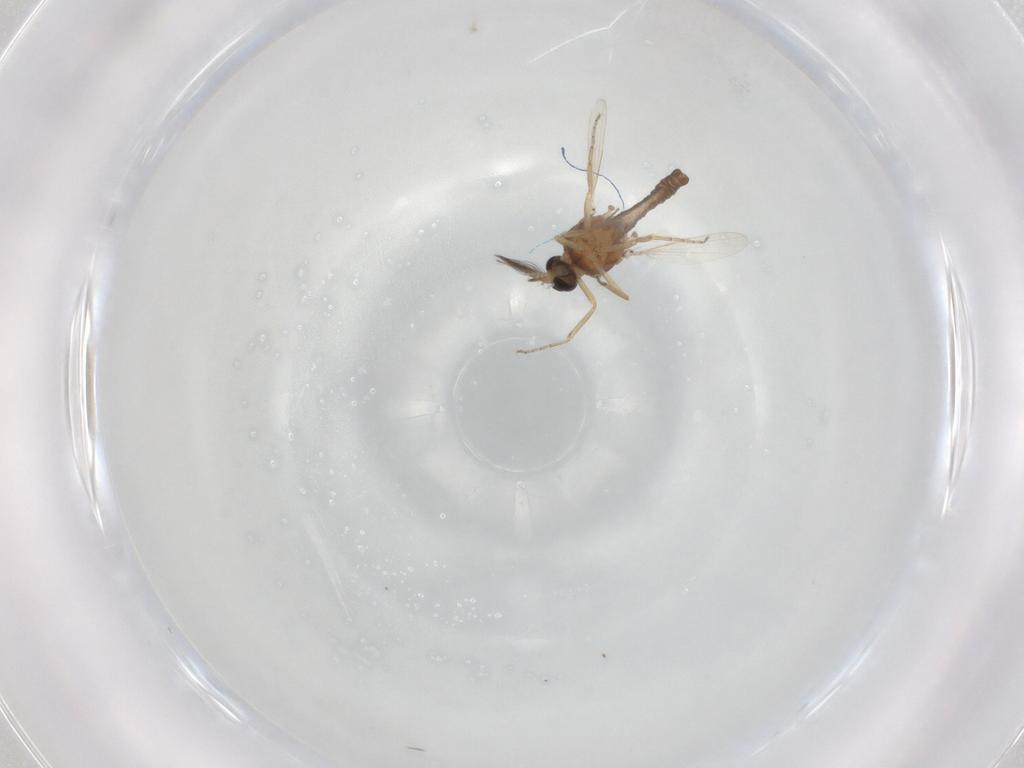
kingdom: Animalia
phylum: Arthropoda
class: Insecta
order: Diptera
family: Ceratopogonidae
